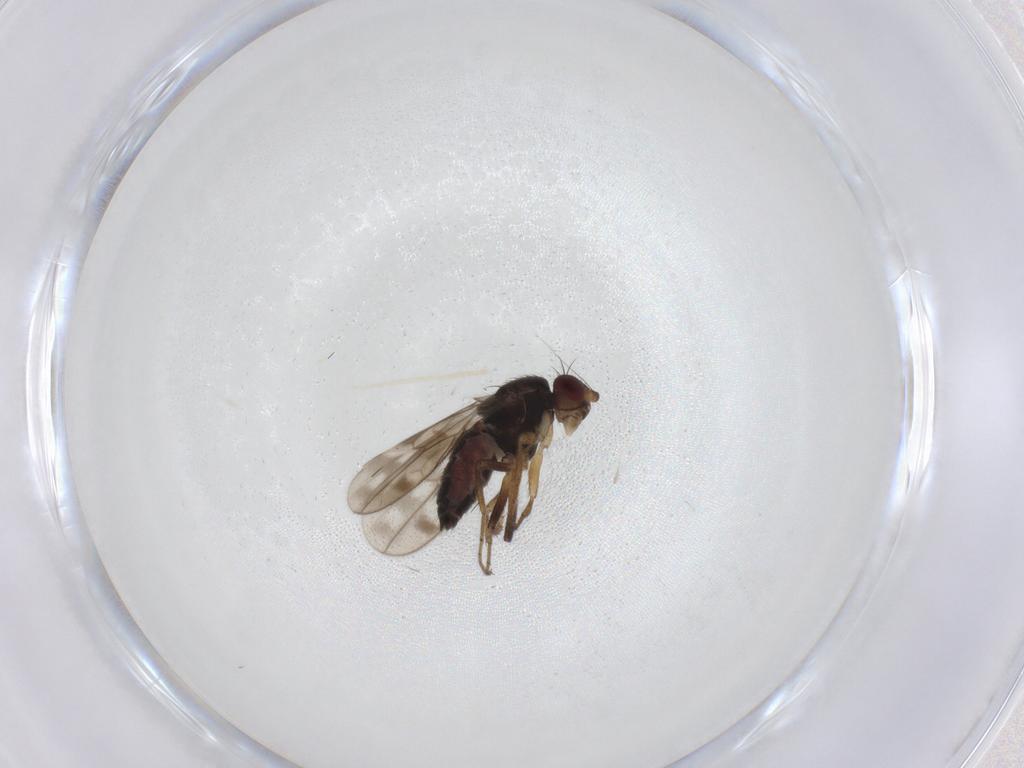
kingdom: Animalia
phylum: Arthropoda
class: Insecta
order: Diptera
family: Sphaeroceridae
